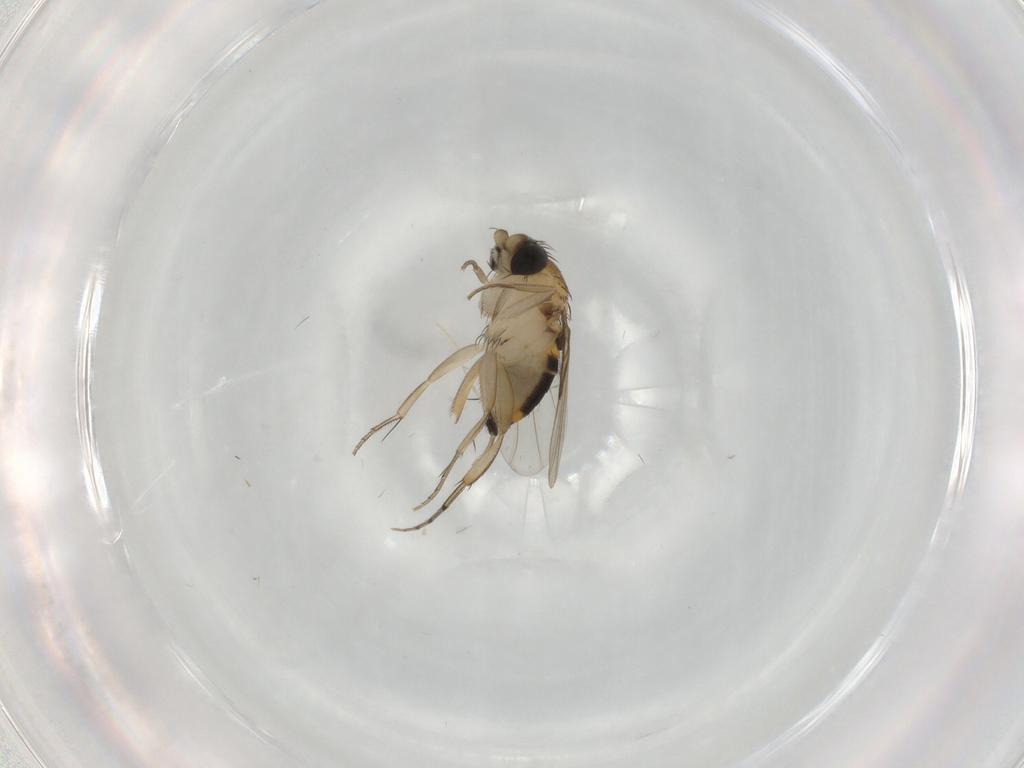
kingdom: Animalia
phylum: Arthropoda
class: Insecta
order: Diptera
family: Phoridae
